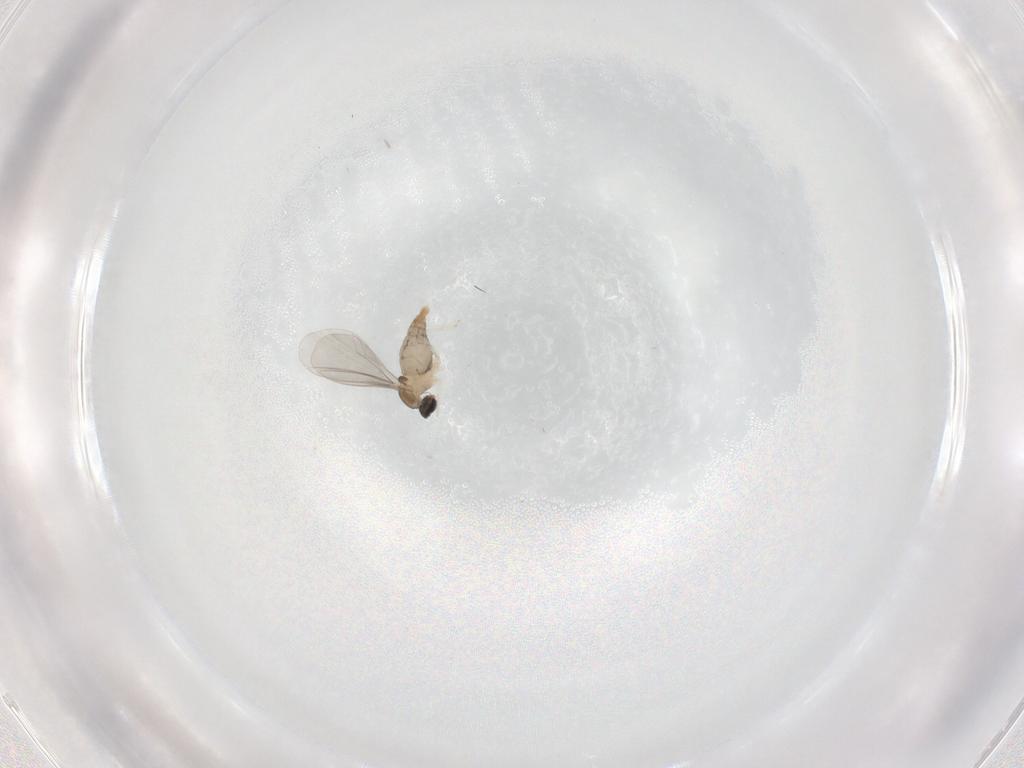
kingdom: Animalia
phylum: Arthropoda
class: Insecta
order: Diptera
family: Cecidomyiidae
